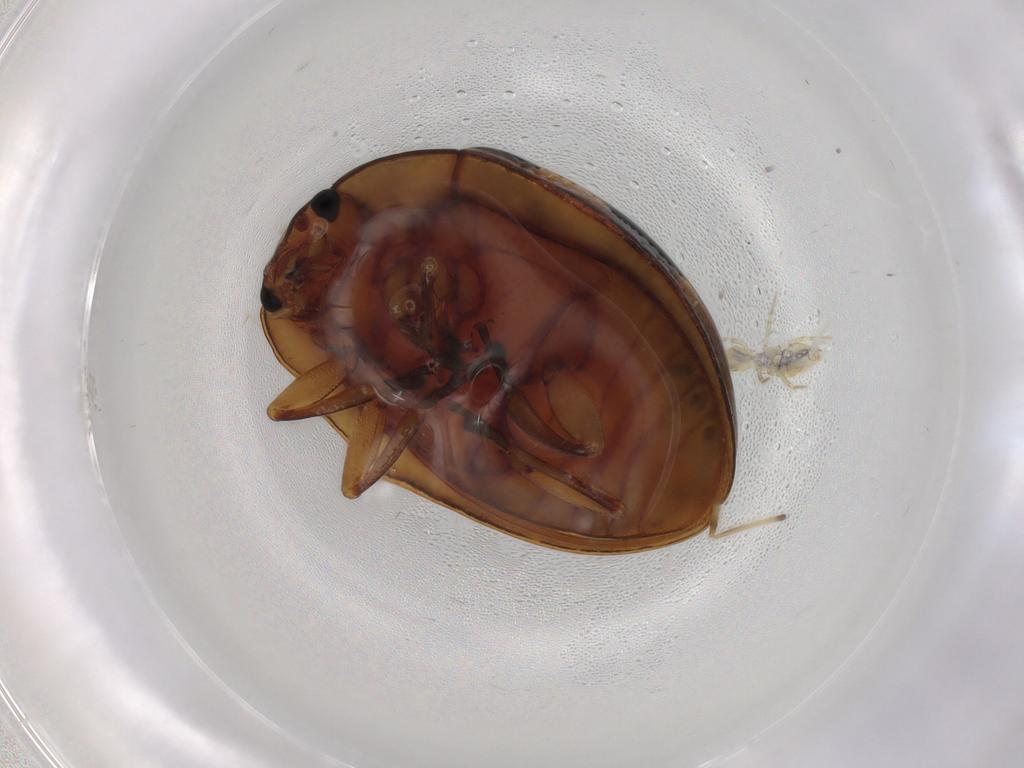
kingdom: Animalia
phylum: Arthropoda
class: Insecta
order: Coleoptera
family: Erotylidae
